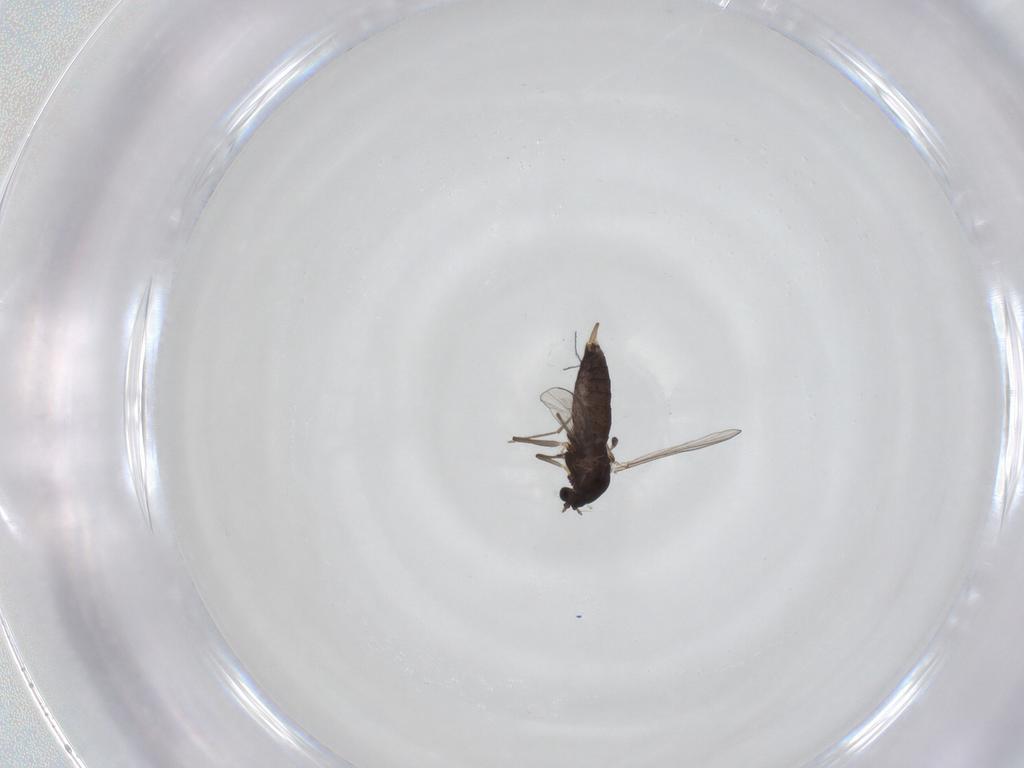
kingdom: Animalia
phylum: Arthropoda
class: Insecta
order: Diptera
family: Chironomidae
